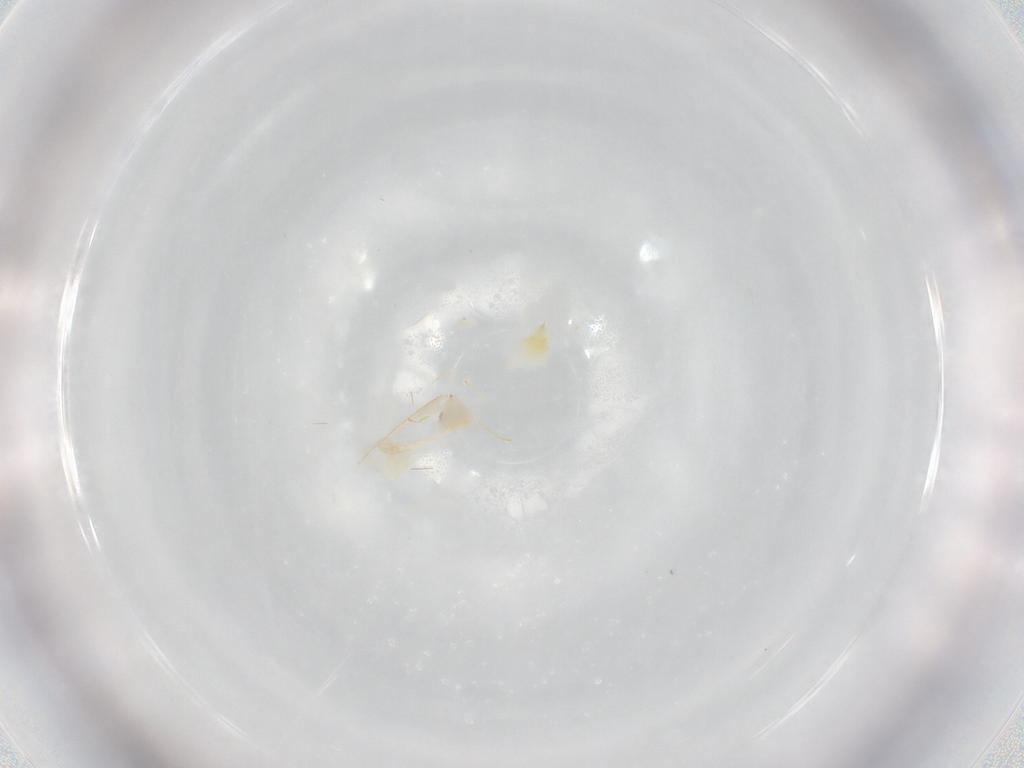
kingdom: Animalia
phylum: Arthropoda
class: Insecta
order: Hemiptera
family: Aleyrodidae
